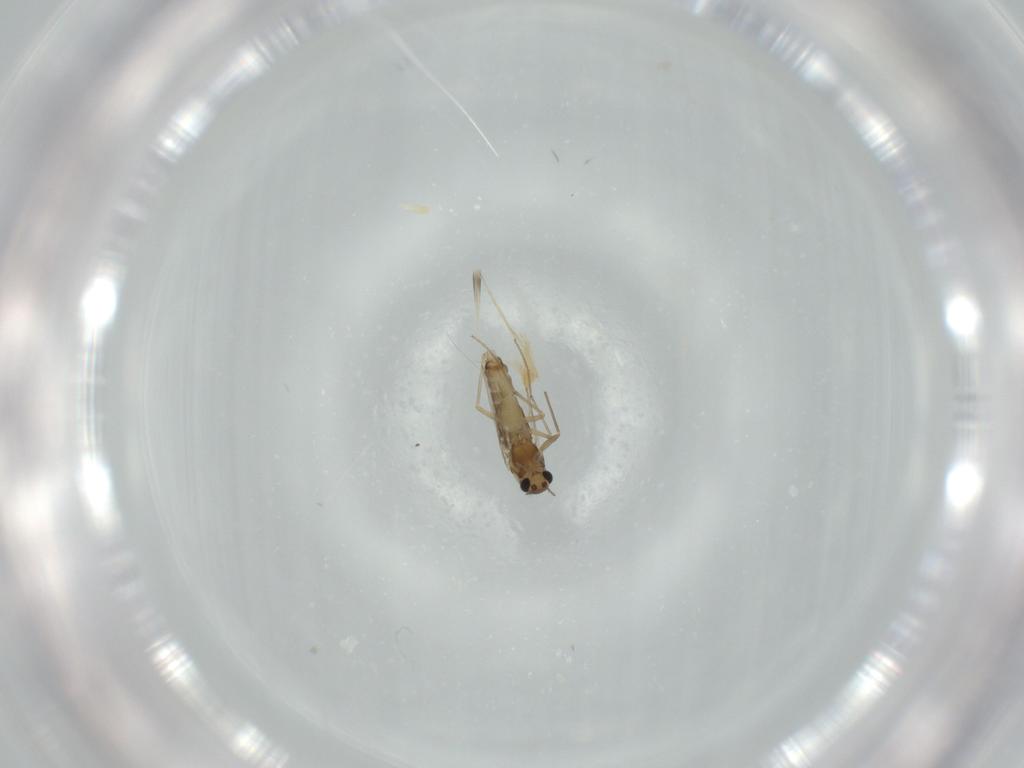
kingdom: Animalia
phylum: Arthropoda
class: Insecta
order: Diptera
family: Chironomidae
